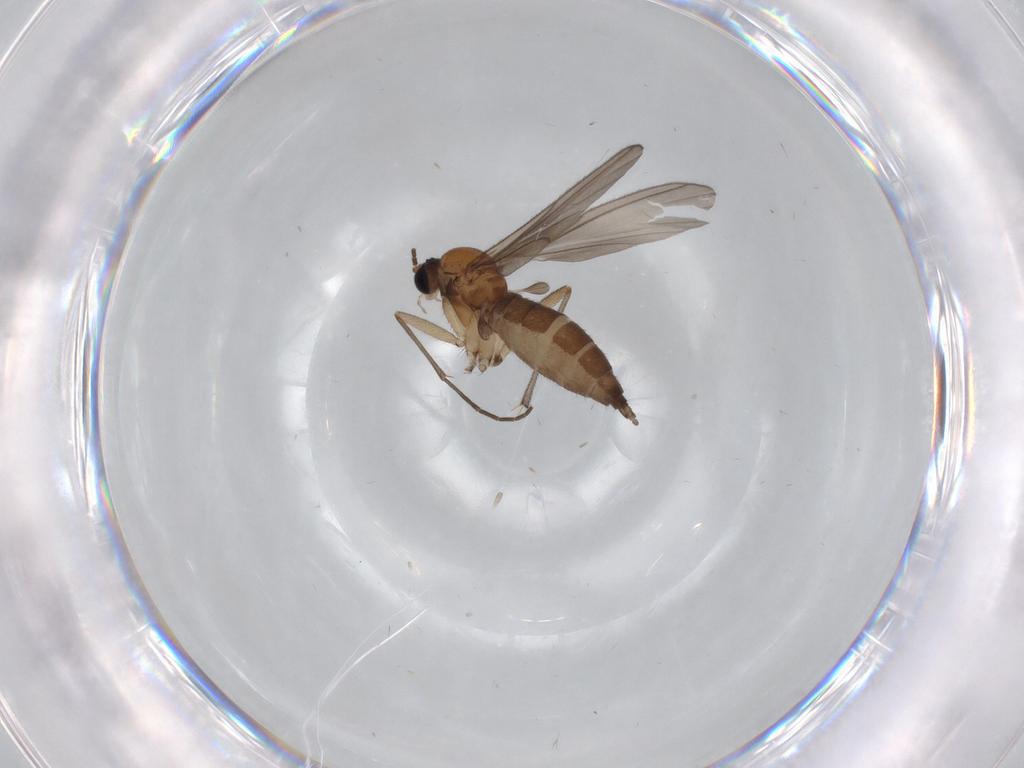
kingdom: Animalia
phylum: Arthropoda
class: Insecta
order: Diptera
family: Sciaridae
